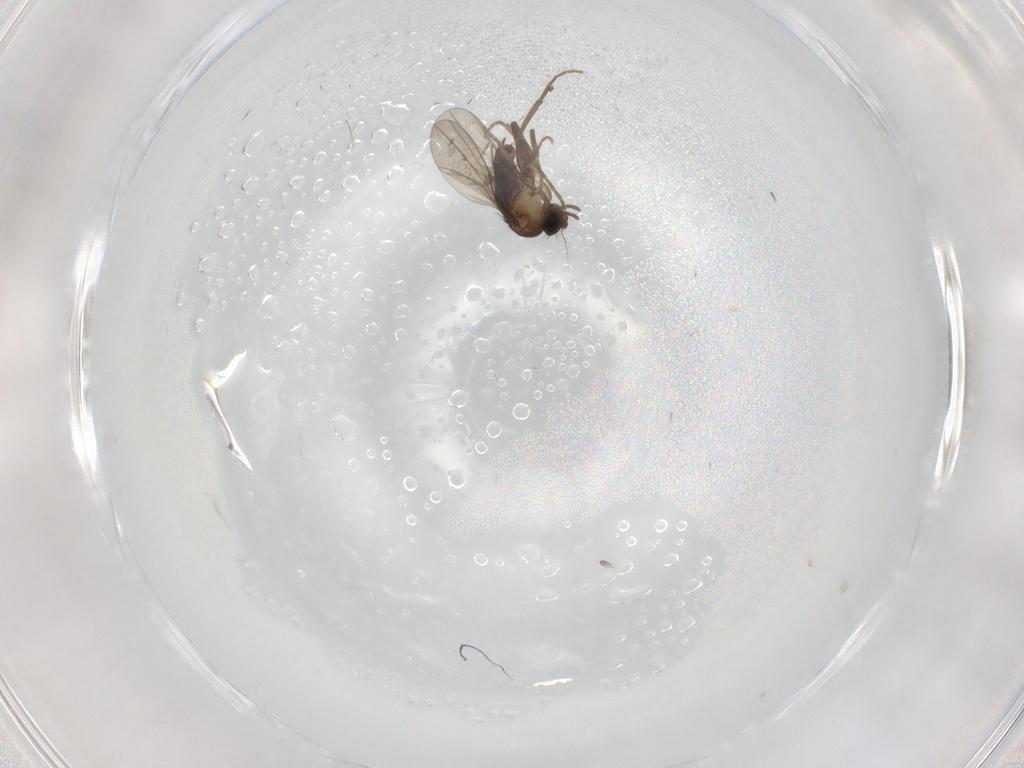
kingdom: Animalia
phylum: Arthropoda
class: Insecta
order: Diptera
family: Chironomidae
